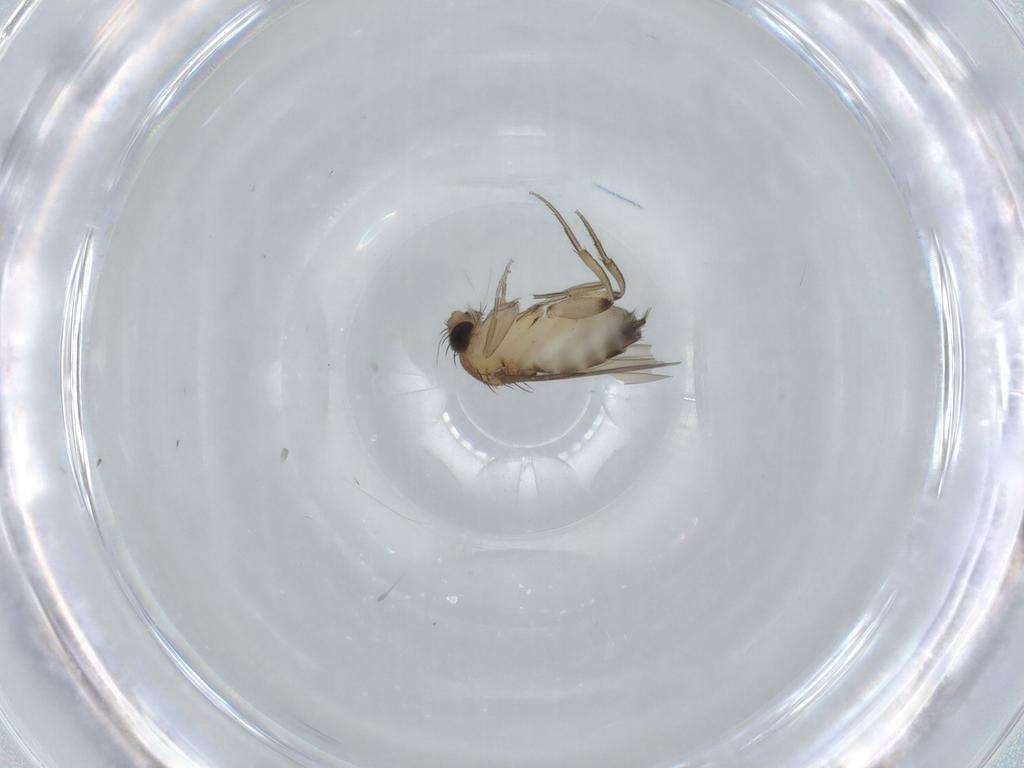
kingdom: Animalia
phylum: Arthropoda
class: Insecta
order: Diptera
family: Phoridae
